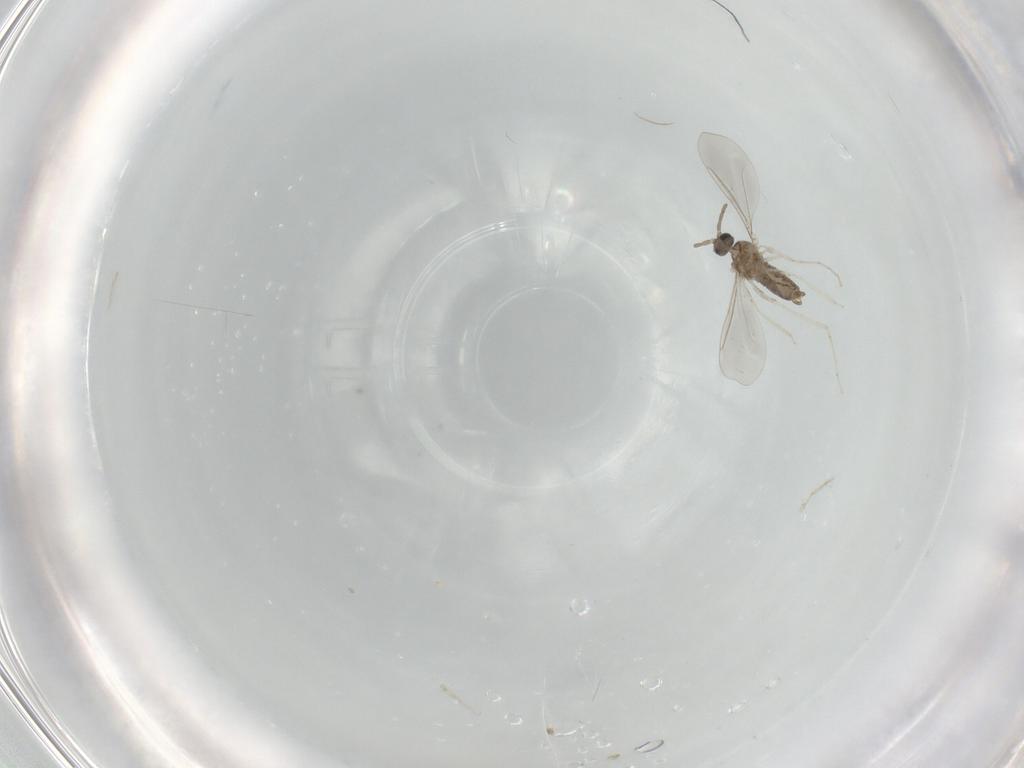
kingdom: Animalia
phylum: Arthropoda
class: Insecta
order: Diptera
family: Cecidomyiidae
